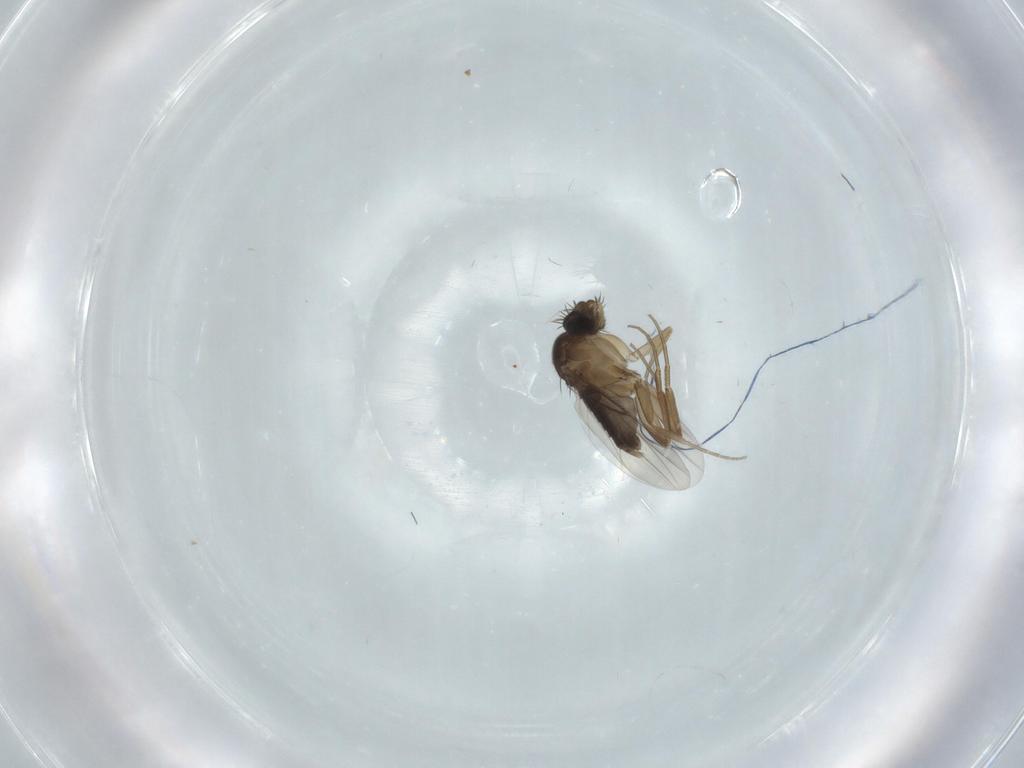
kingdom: Animalia
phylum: Arthropoda
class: Insecta
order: Diptera
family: Phoridae
